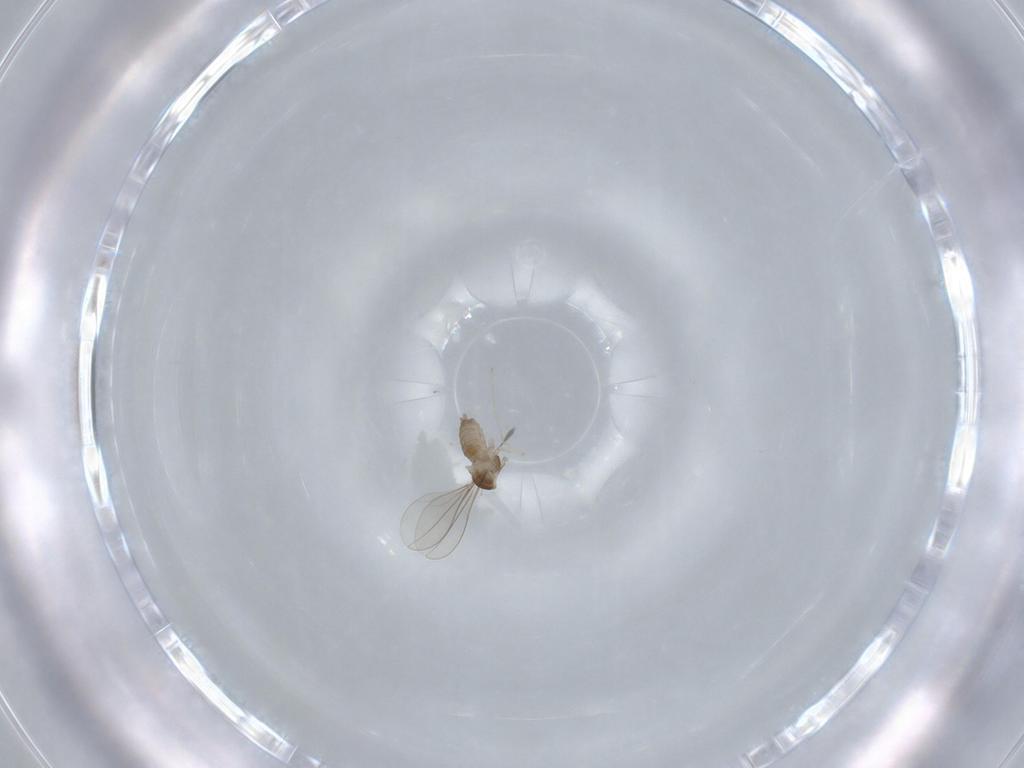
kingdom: Animalia
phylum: Arthropoda
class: Insecta
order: Diptera
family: Cecidomyiidae
